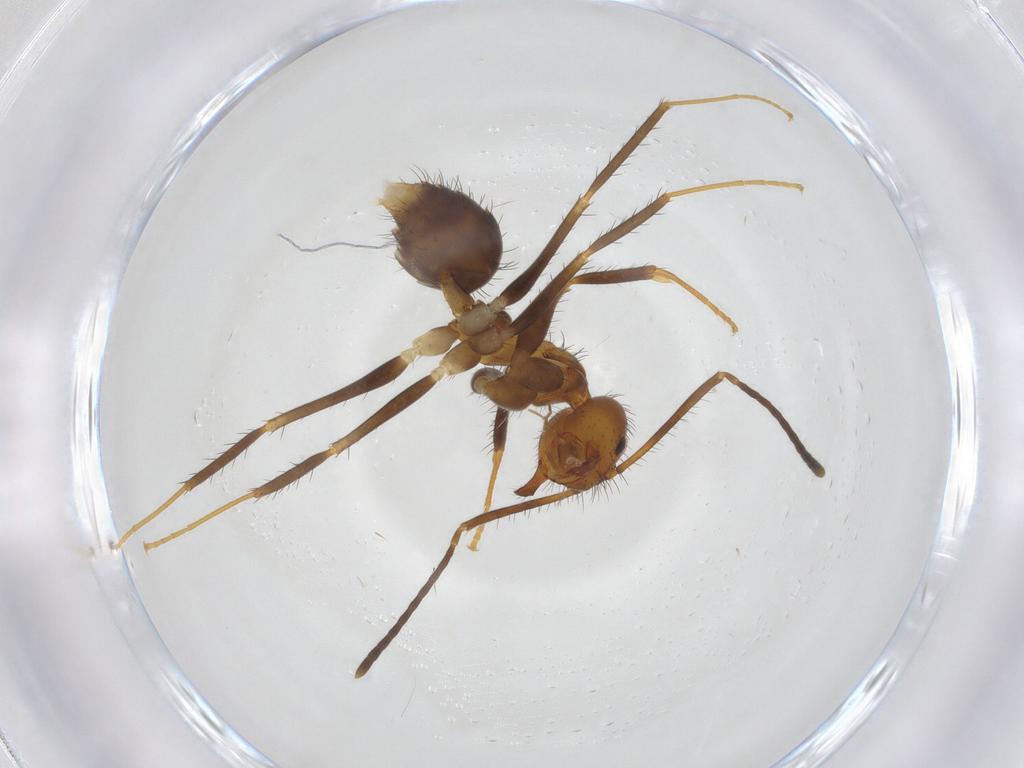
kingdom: Animalia
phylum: Arthropoda
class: Insecta
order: Hymenoptera
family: Formicidae
